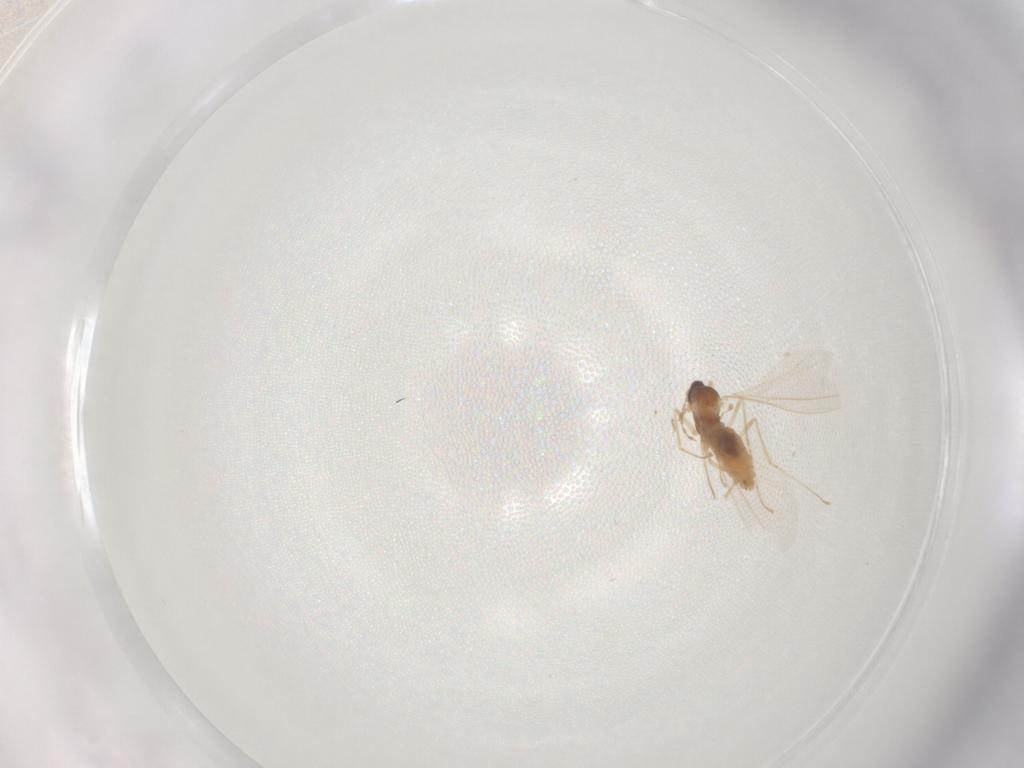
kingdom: Animalia
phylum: Arthropoda
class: Insecta
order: Diptera
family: Cecidomyiidae
